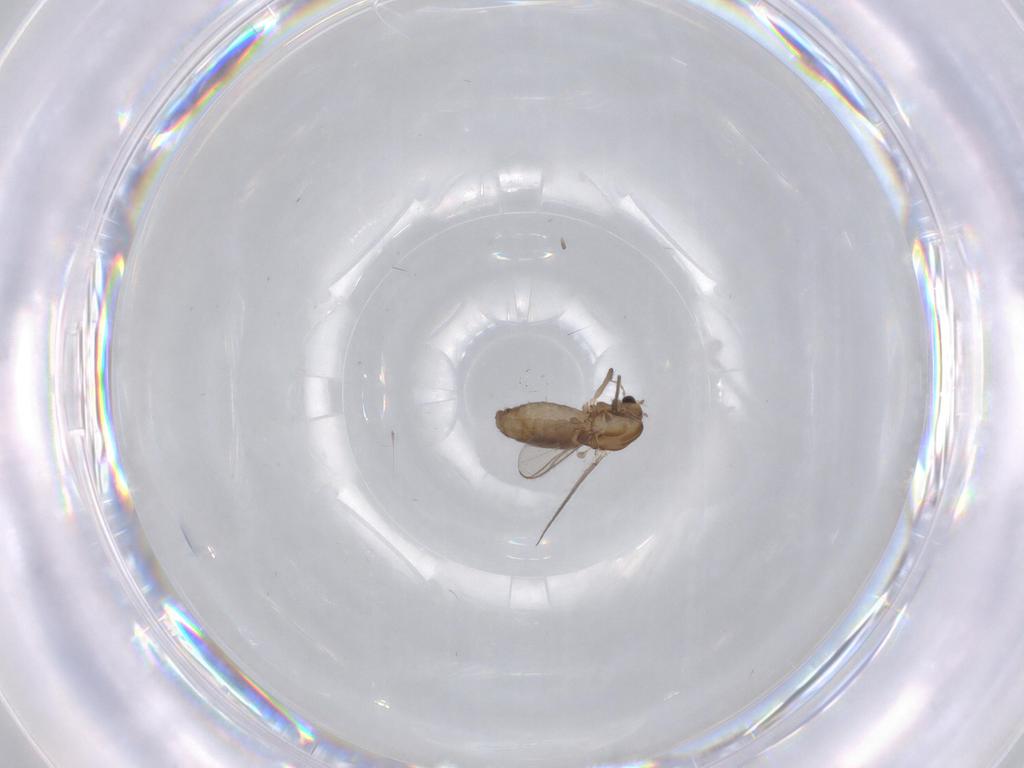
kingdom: Animalia
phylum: Arthropoda
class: Insecta
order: Diptera
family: Chironomidae
